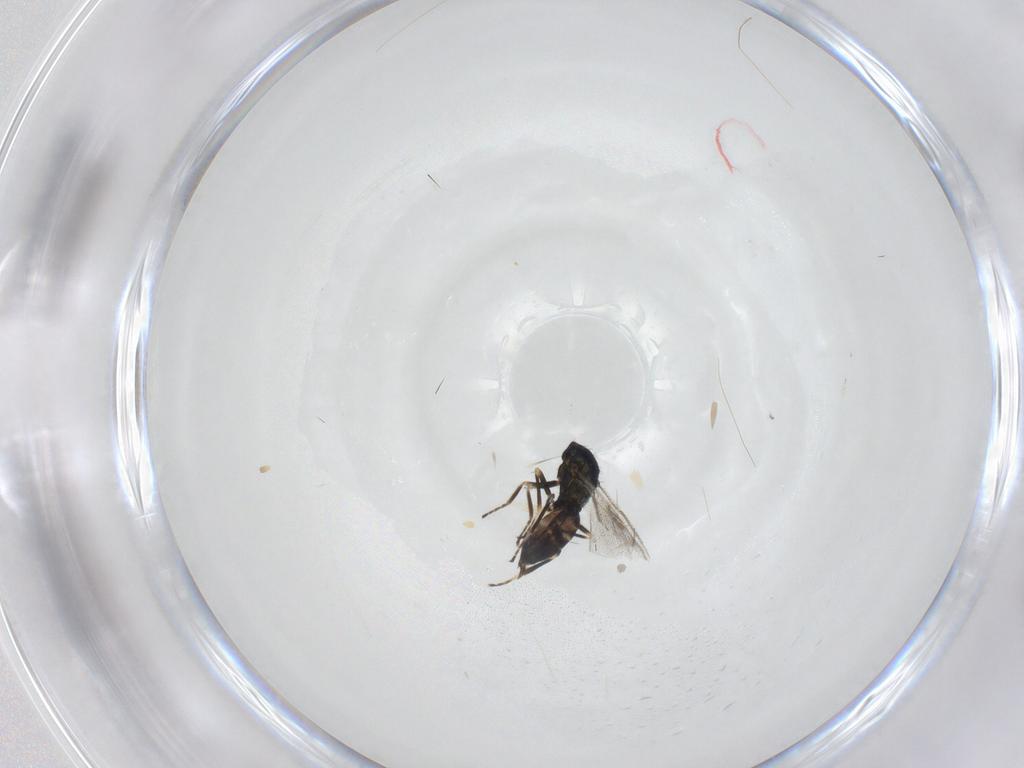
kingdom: Animalia
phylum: Arthropoda
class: Insecta
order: Hymenoptera
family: Eulophidae
